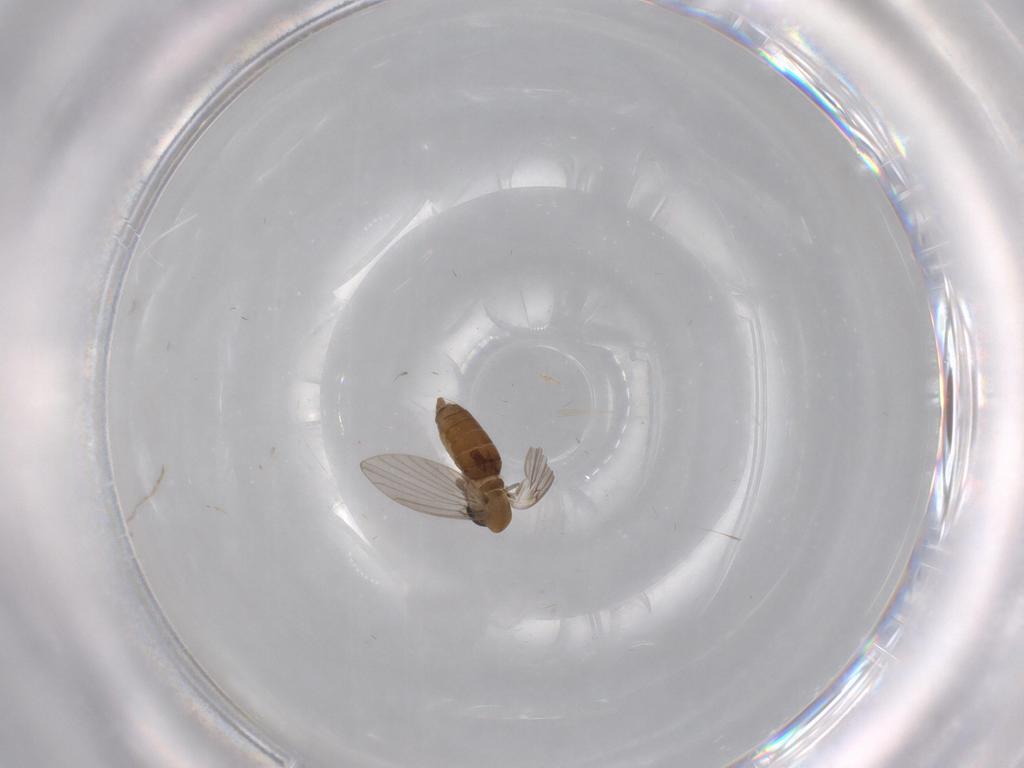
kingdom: Animalia
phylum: Arthropoda
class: Insecta
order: Diptera
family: Psychodidae
